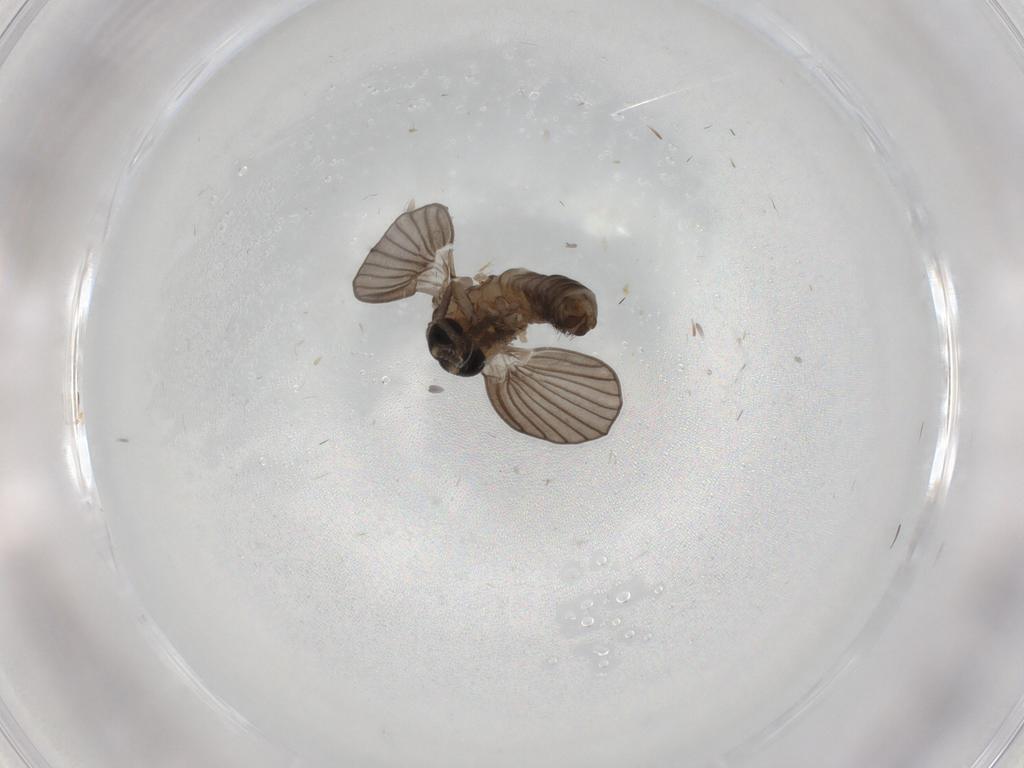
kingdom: Animalia
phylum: Arthropoda
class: Insecta
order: Diptera
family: Psychodidae
